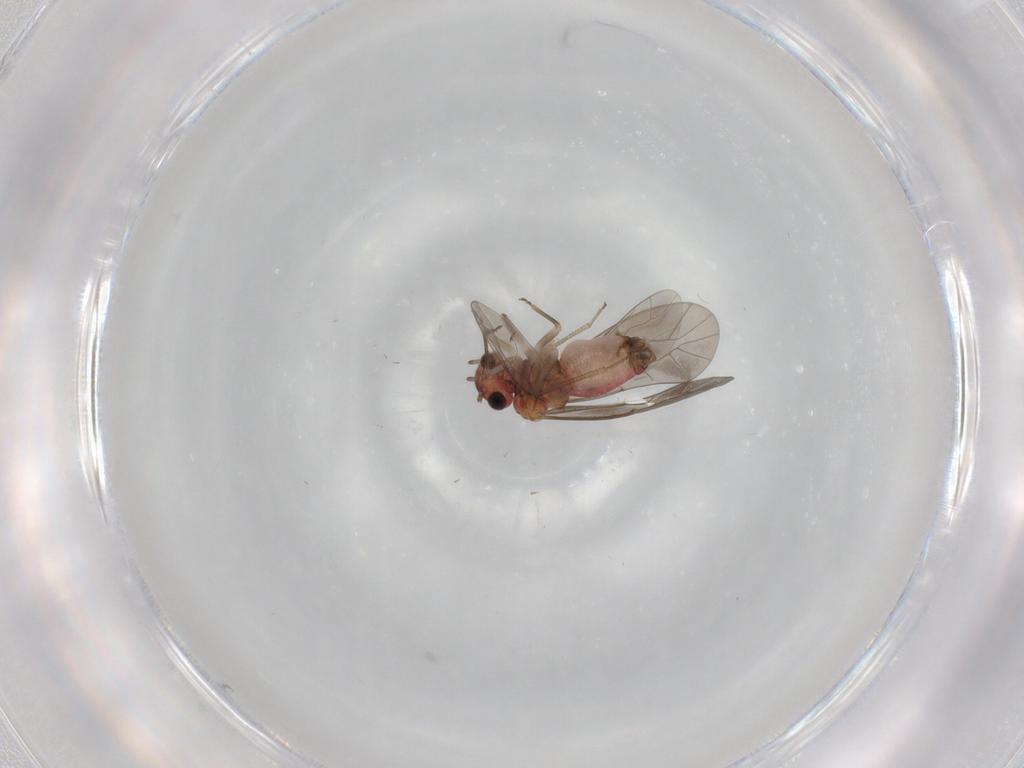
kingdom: Animalia
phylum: Arthropoda
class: Insecta
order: Psocodea
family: Lachesillidae
